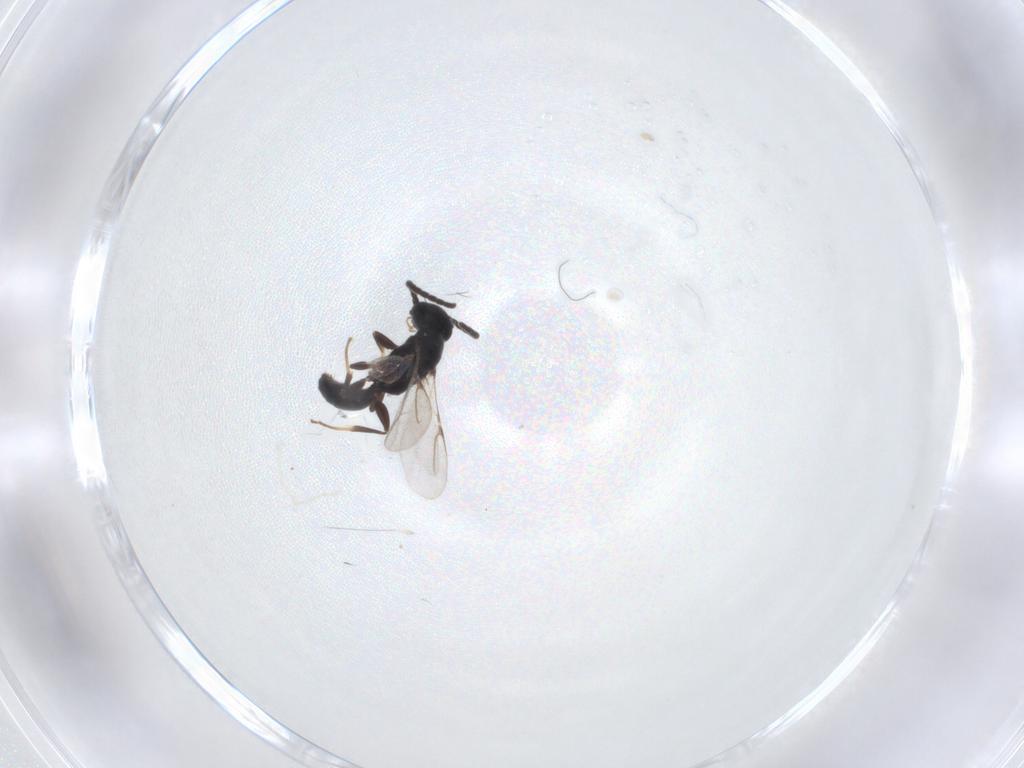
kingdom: Animalia
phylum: Arthropoda
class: Insecta
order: Hymenoptera
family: Bethylidae
